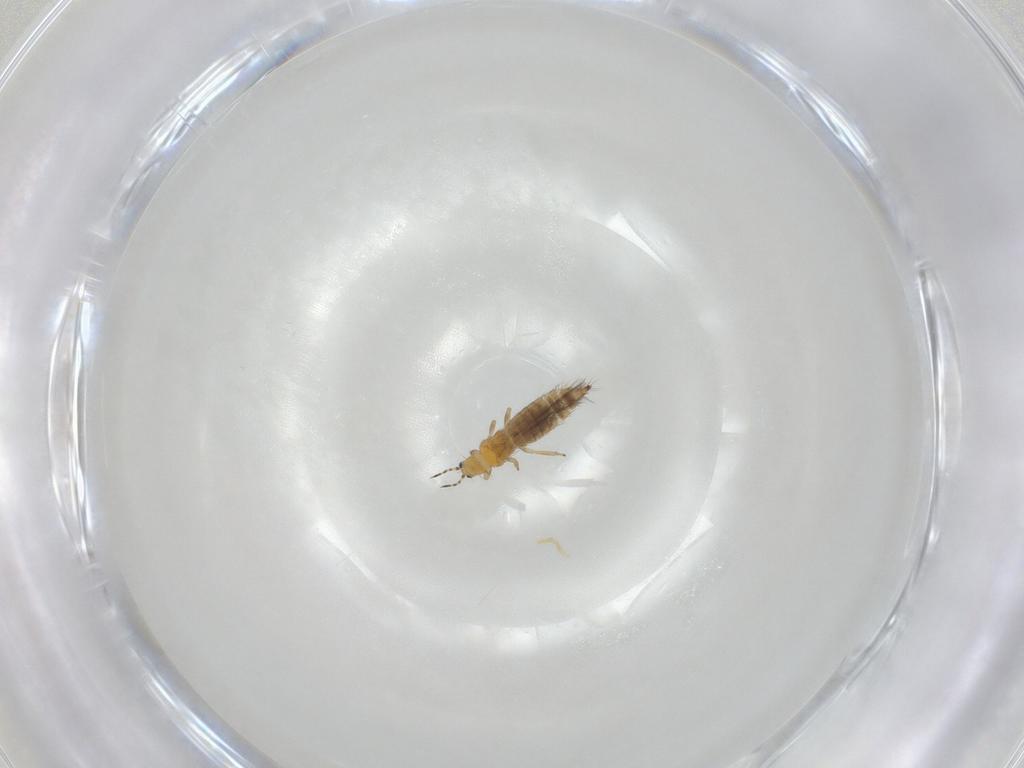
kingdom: Animalia
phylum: Arthropoda
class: Insecta
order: Thysanoptera
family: Thripidae
